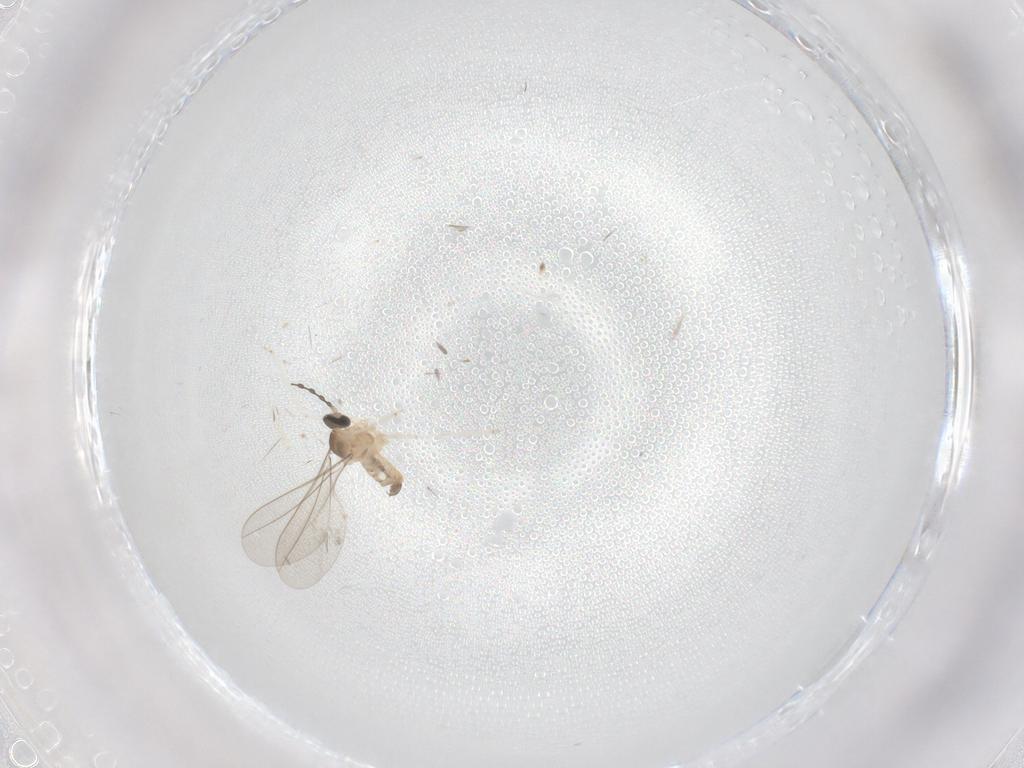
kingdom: Animalia
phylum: Arthropoda
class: Insecta
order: Diptera
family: Cecidomyiidae
